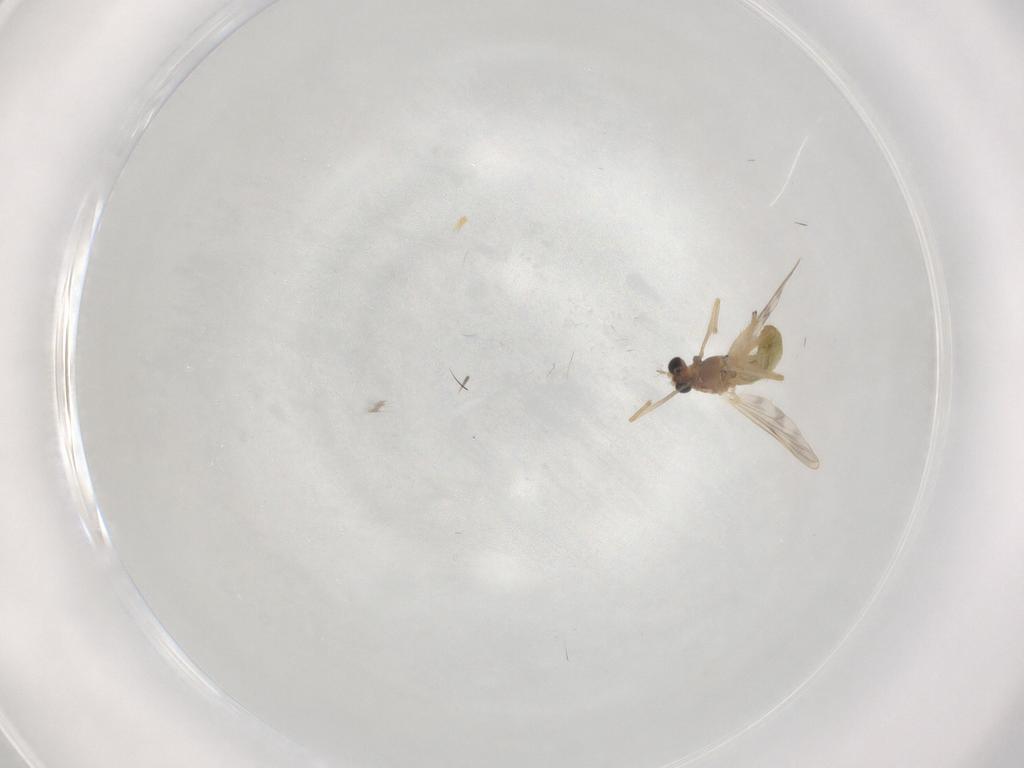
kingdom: Animalia
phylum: Arthropoda
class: Insecta
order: Diptera
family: Chironomidae
